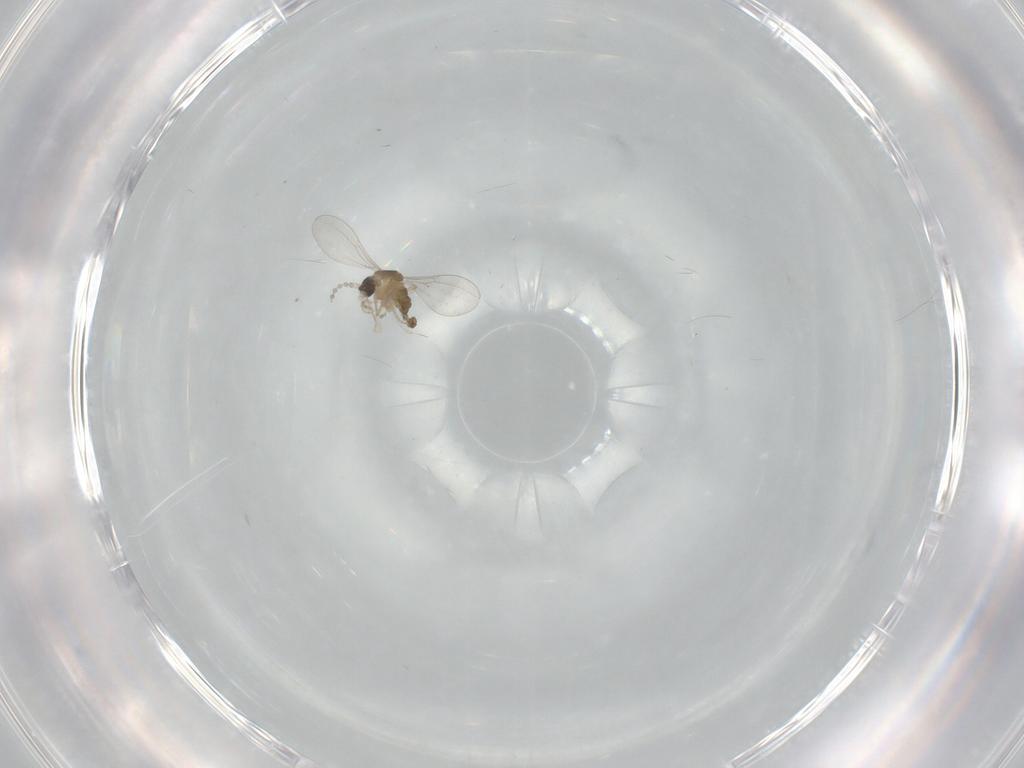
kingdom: Animalia
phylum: Arthropoda
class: Insecta
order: Diptera
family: Cecidomyiidae
